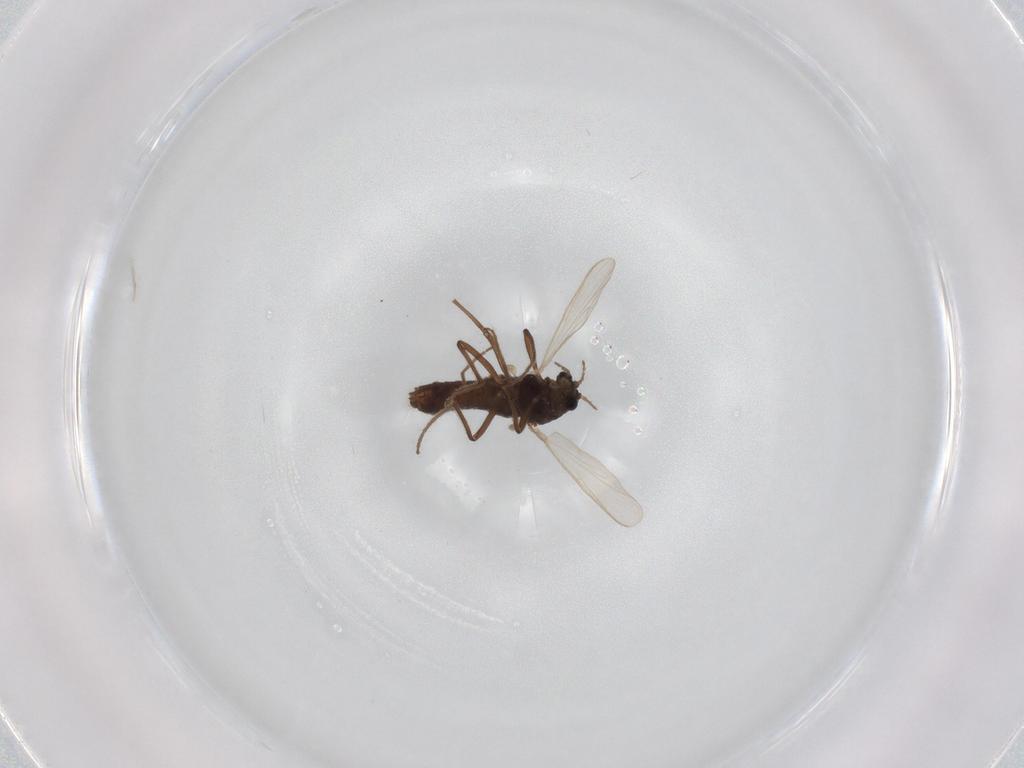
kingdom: Animalia
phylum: Arthropoda
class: Insecta
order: Diptera
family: Chironomidae
